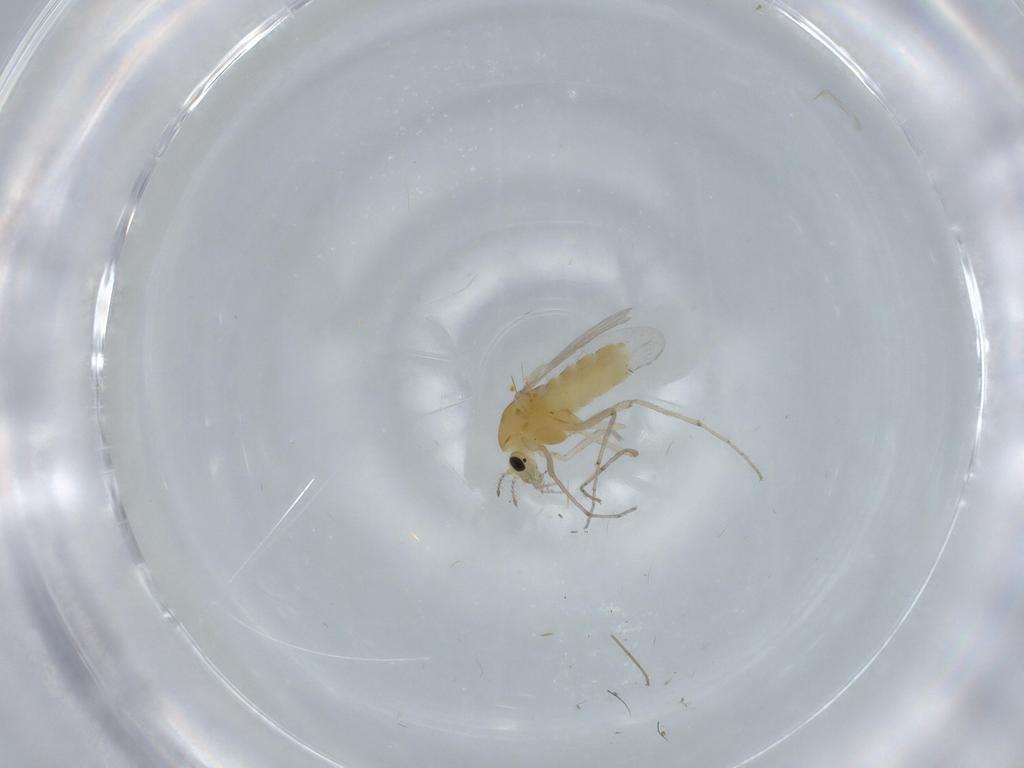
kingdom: Animalia
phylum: Arthropoda
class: Insecta
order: Diptera
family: Chironomidae
